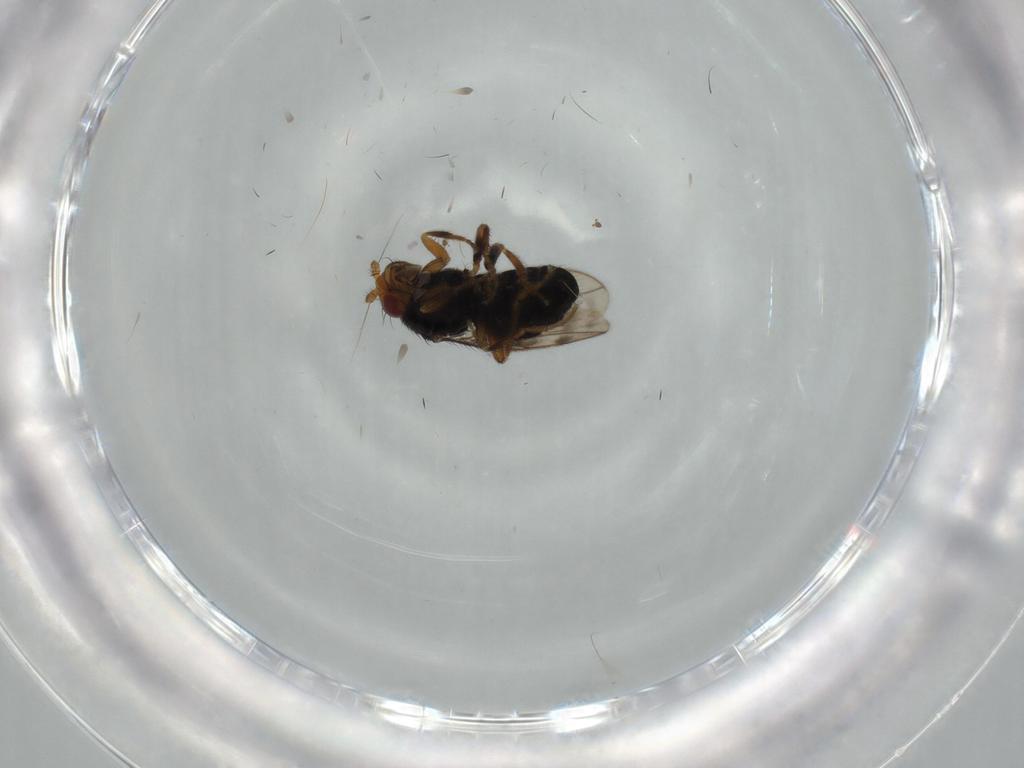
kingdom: Animalia
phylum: Arthropoda
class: Insecta
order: Diptera
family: Sphaeroceridae
